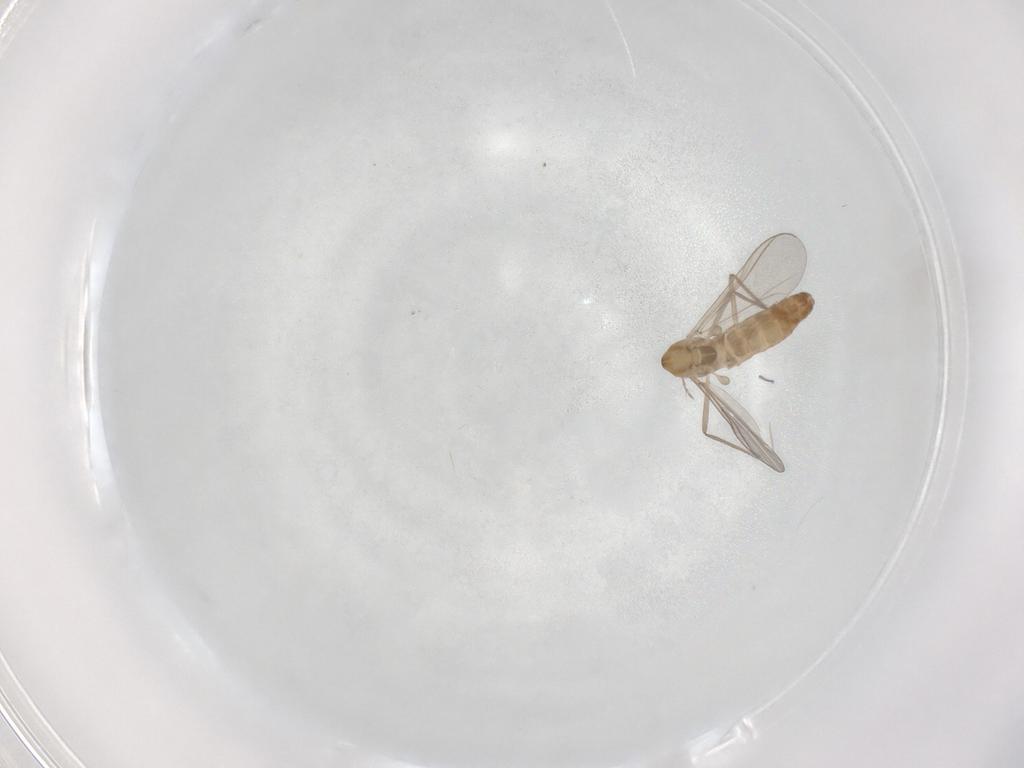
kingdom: Animalia
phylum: Arthropoda
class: Insecta
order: Diptera
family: Chironomidae
